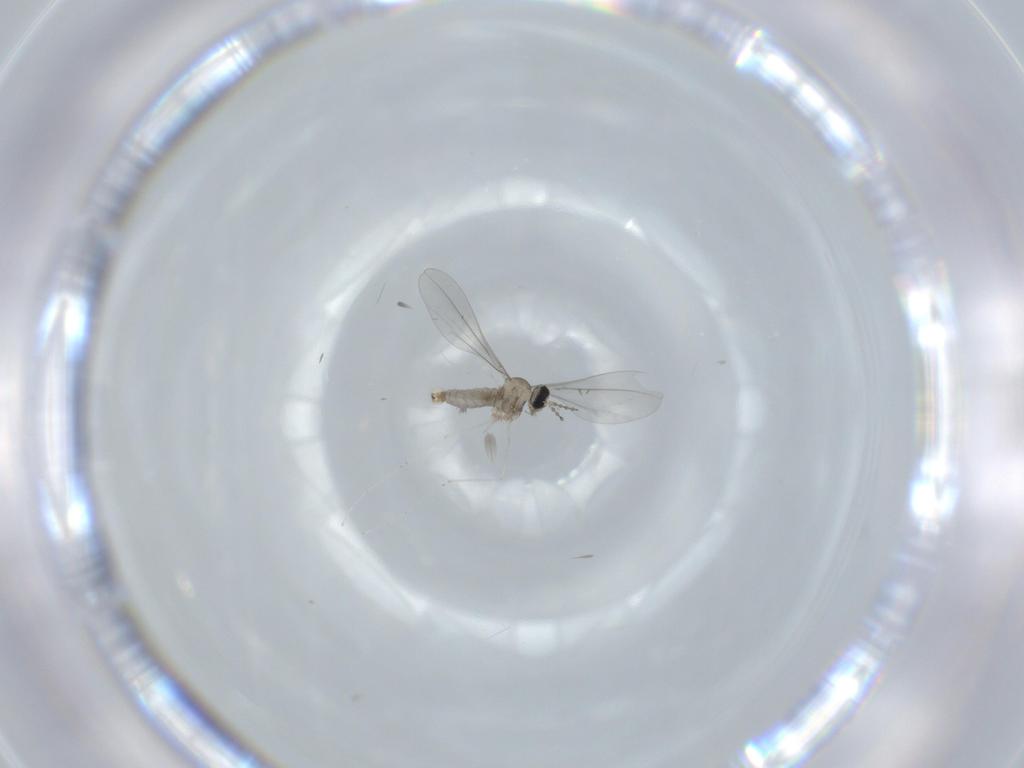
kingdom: Animalia
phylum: Arthropoda
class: Insecta
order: Diptera
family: Cecidomyiidae
